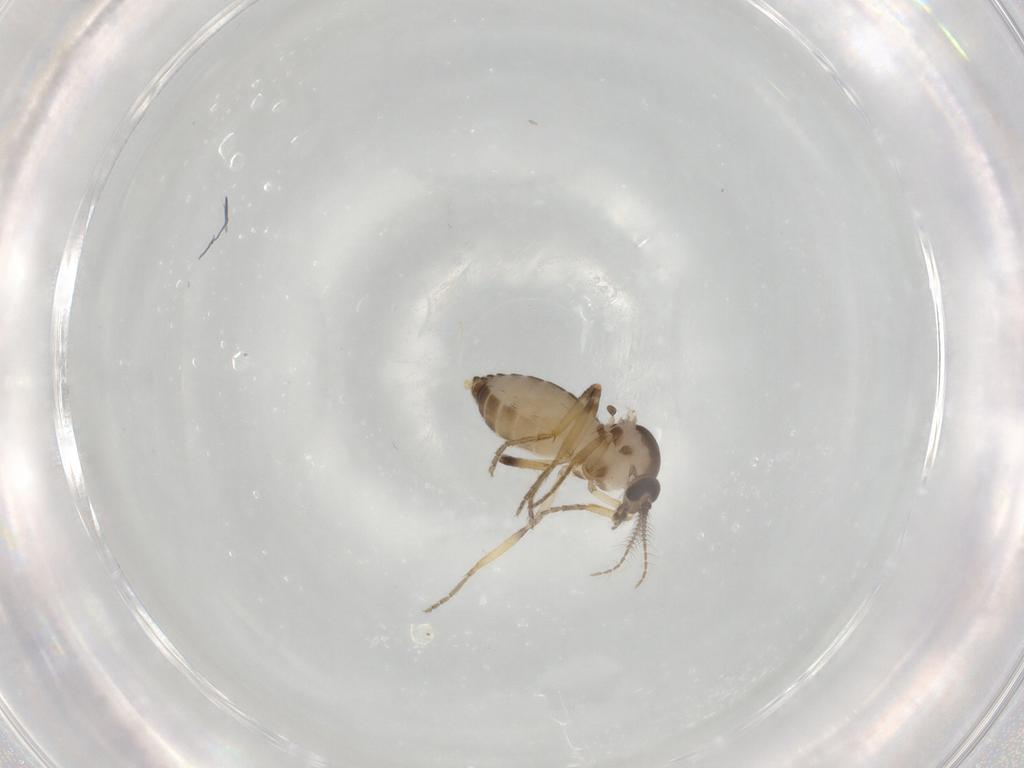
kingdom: Animalia
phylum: Arthropoda
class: Insecta
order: Diptera
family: Ceratopogonidae
